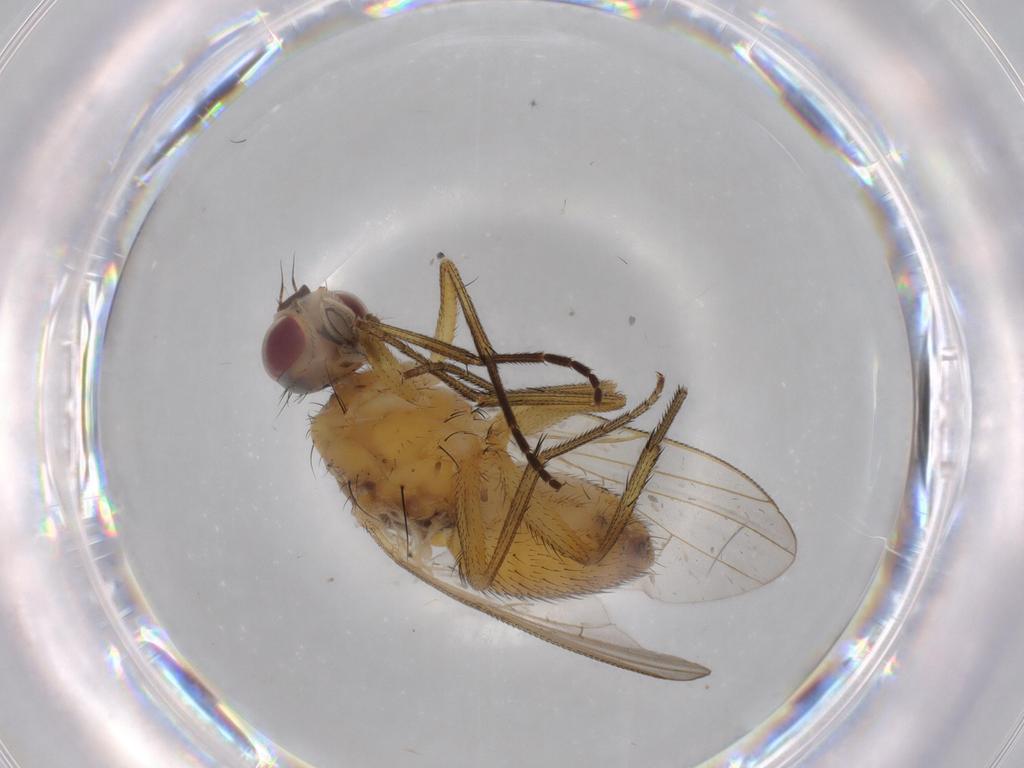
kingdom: Animalia
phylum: Arthropoda
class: Insecta
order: Diptera
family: Muscidae
